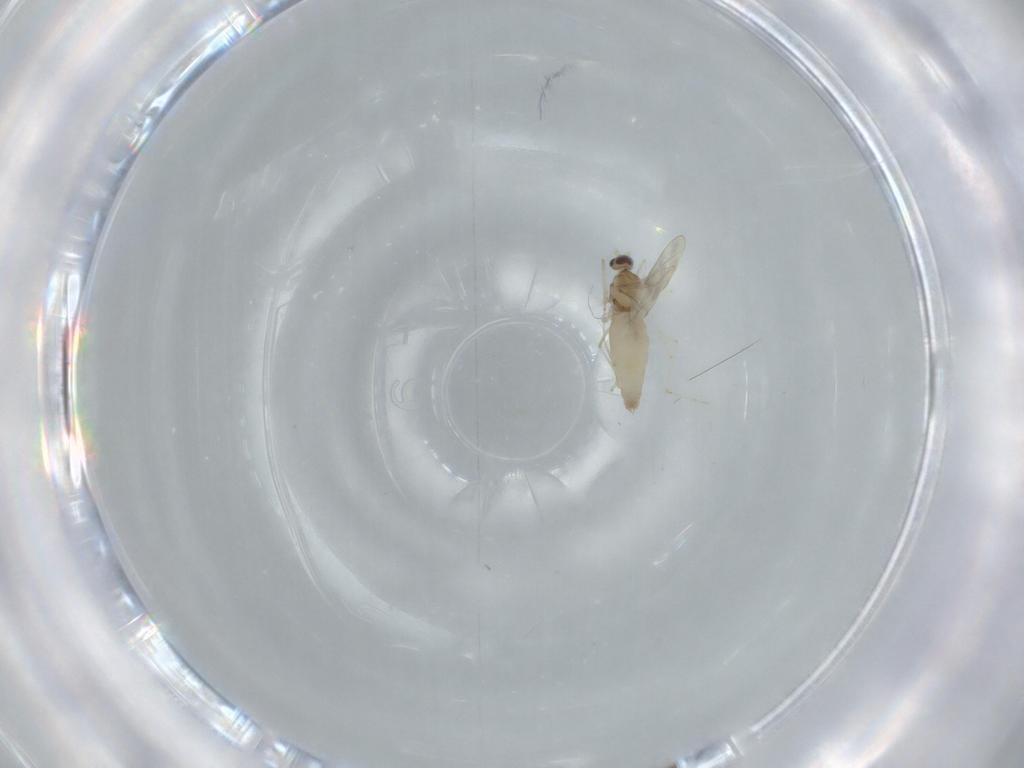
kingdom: Animalia
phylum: Arthropoda
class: Insecta
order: Diptera
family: Cecidomyiidae
